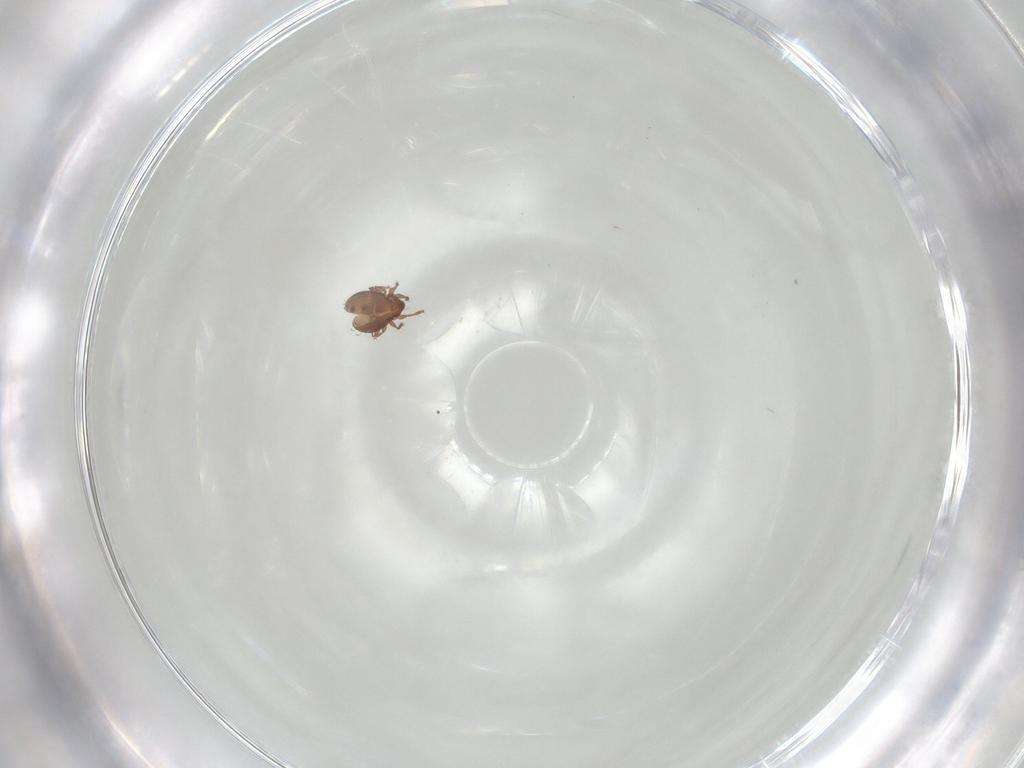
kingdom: Animalia
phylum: Arthropoda
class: Arachnida
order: Sarcoptiformes
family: Scheloribatidae
